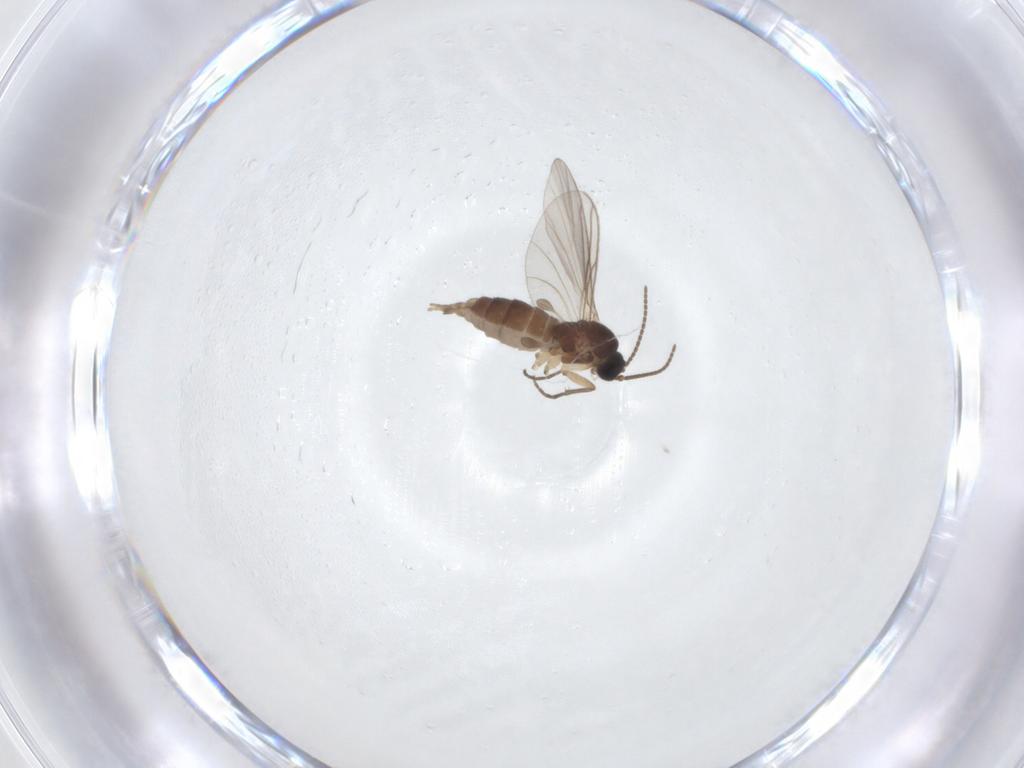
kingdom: Animalia
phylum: Arthropoda
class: Insecta
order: Diptera
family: Sciaridae
